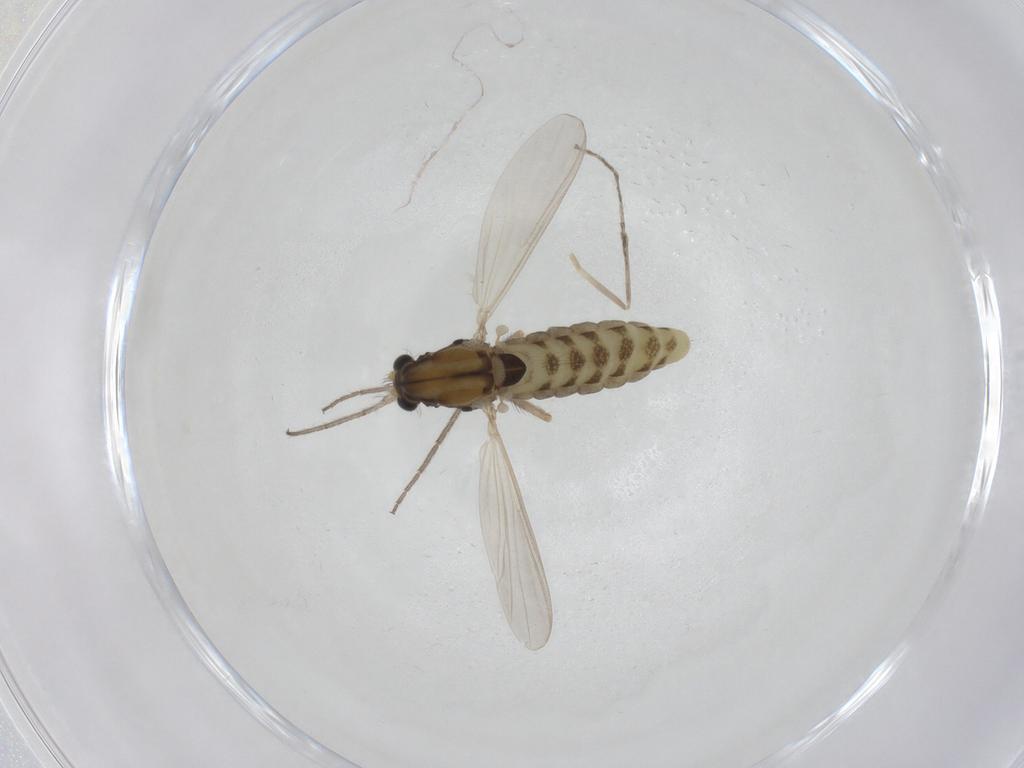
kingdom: Animalia
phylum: Arthropoda
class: Insecta
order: Diptera
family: Chironomidae
